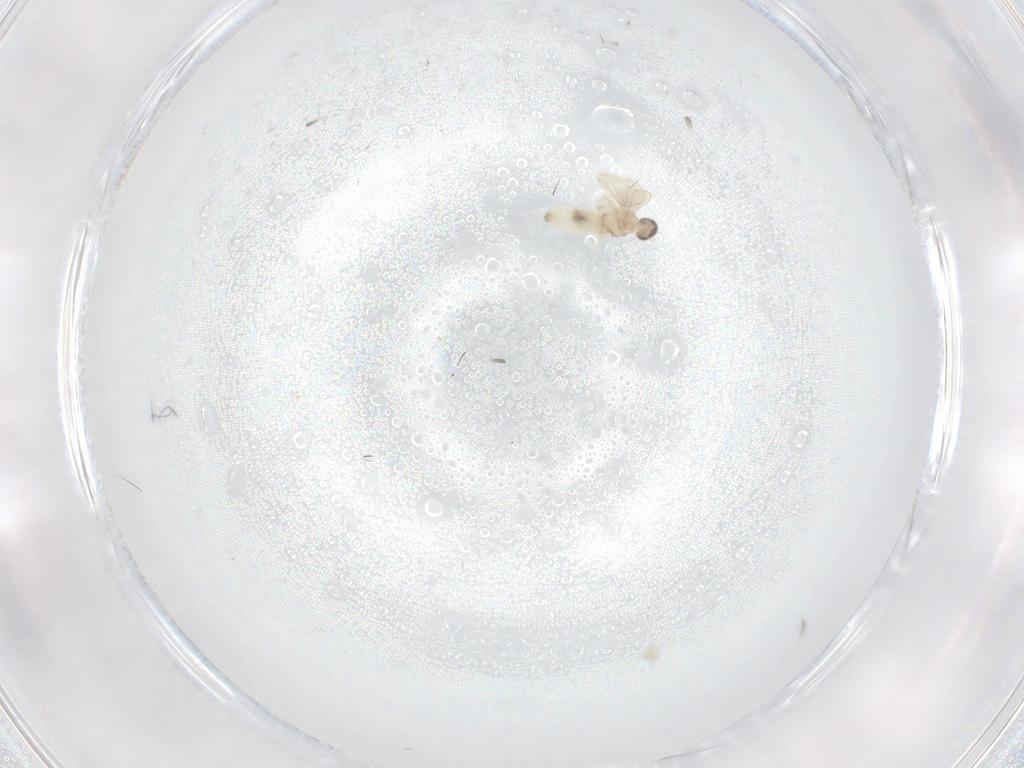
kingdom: Animalia
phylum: Arthropoda
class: Insecta
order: Diptera
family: Cecidomyiidae
